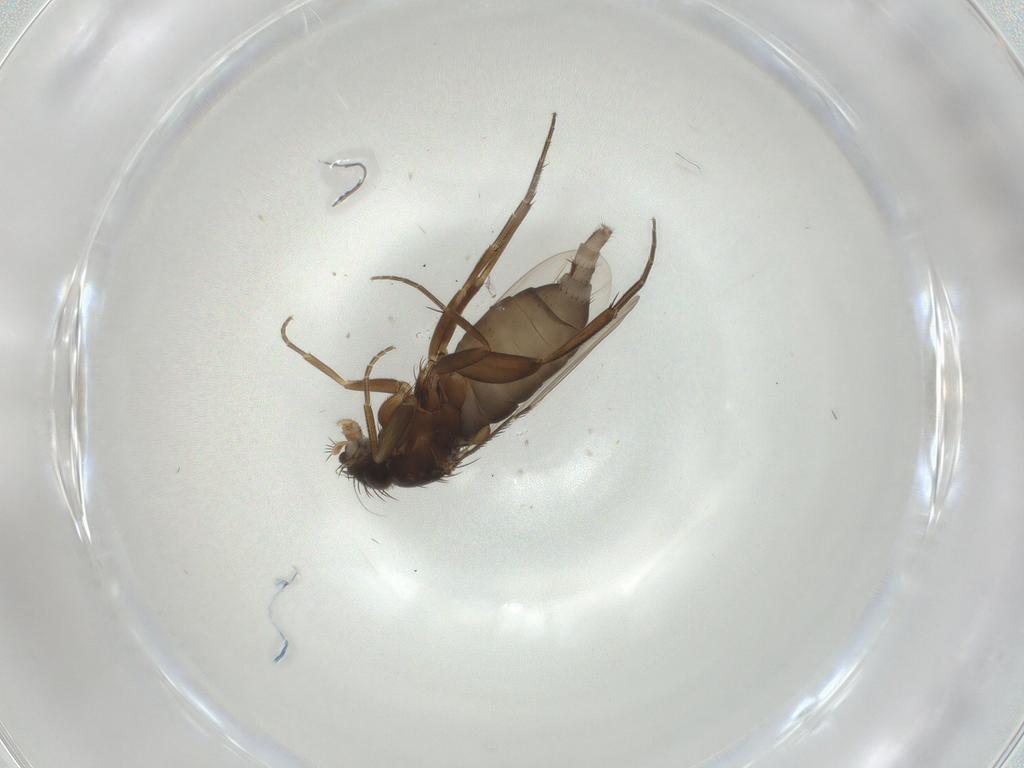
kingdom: Animalia
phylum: Arthropoda
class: Insecta
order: Diptera
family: Phoridae
